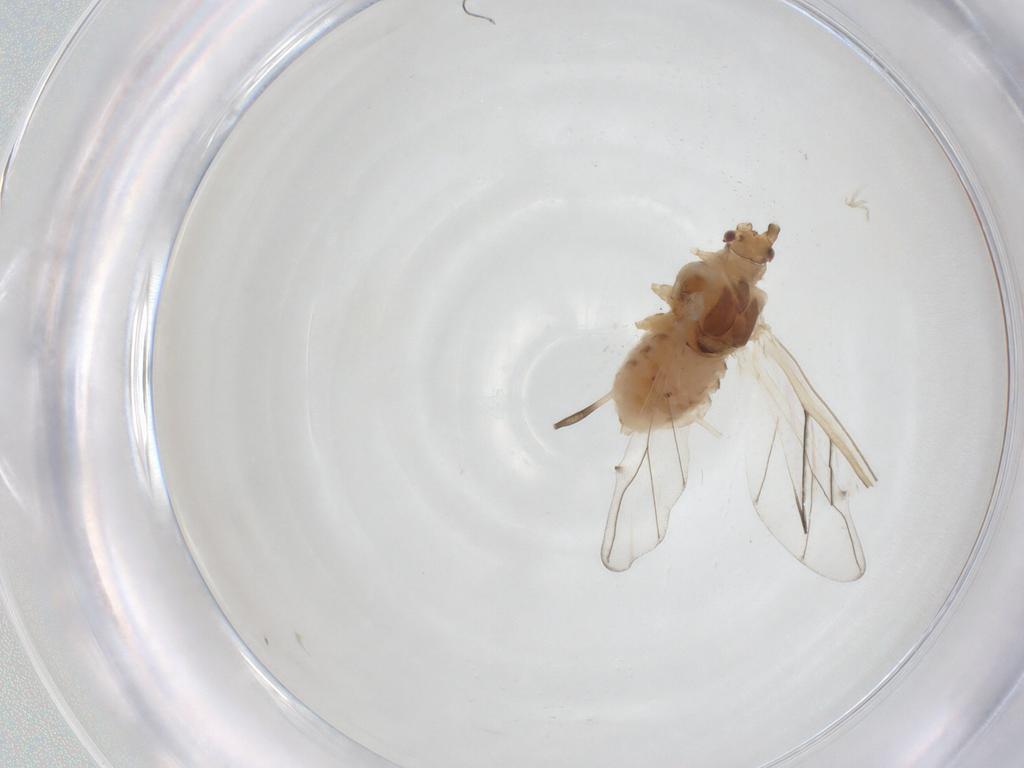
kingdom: Animalia
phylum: Arthropoda
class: Insecta
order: Hemiptera
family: Aphididae
